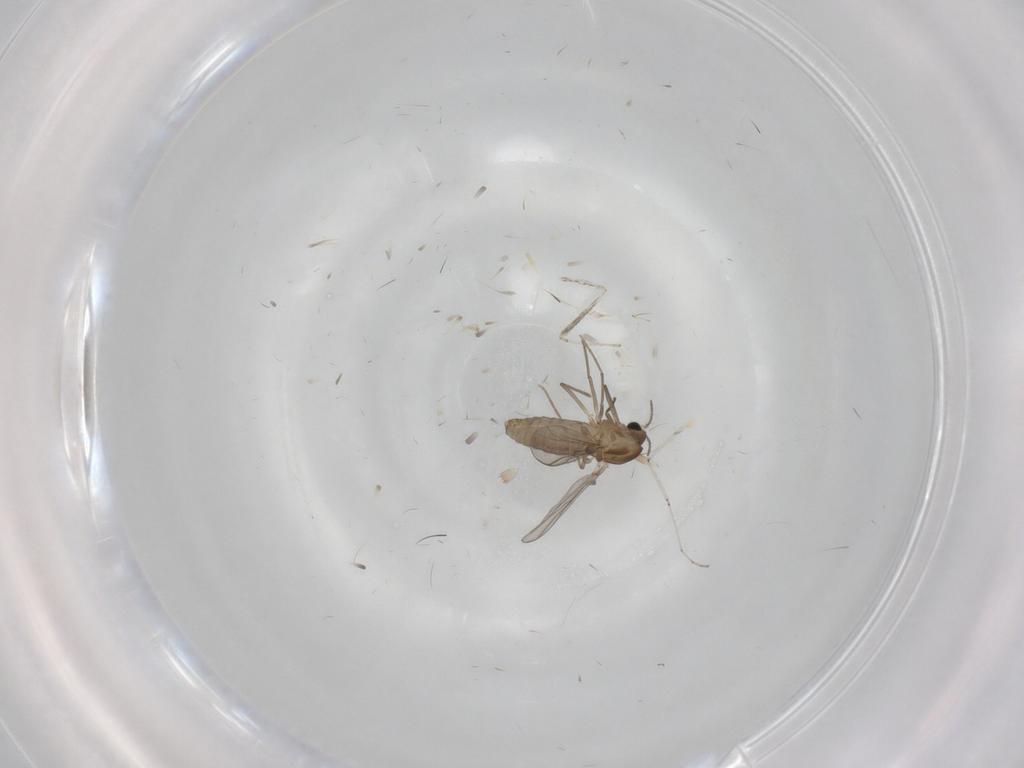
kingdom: Animalia
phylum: Arthropoda
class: Insecta
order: Diptera
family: Chironomidae
